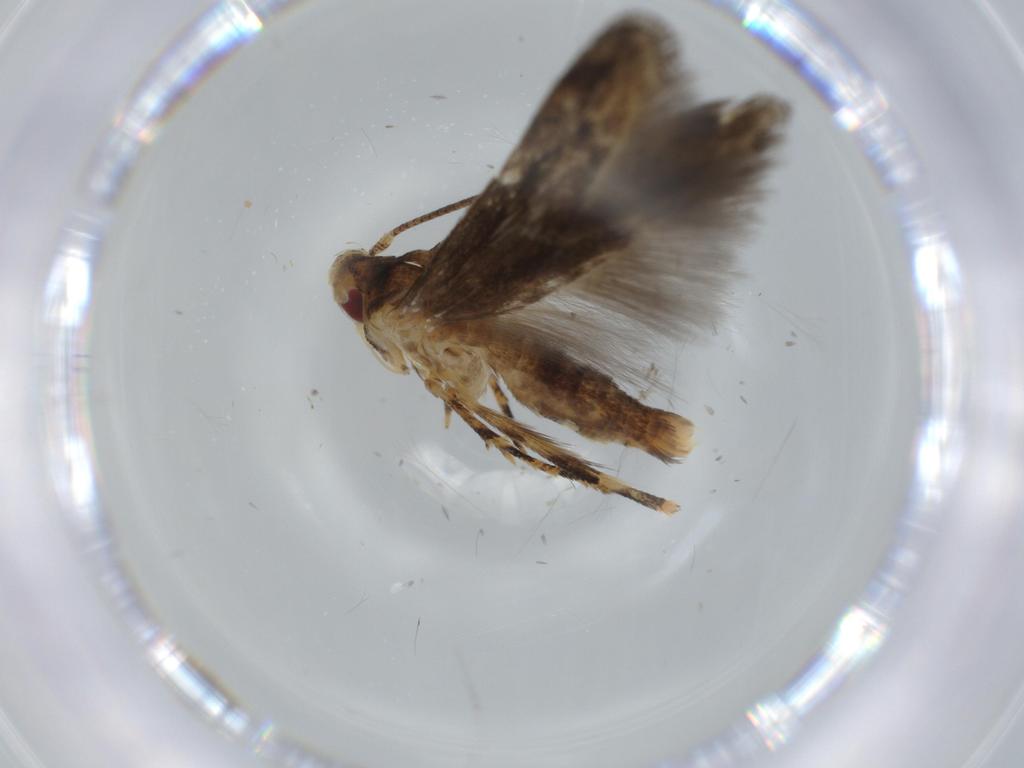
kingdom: Animalia
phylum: Arthropoda
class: Insecta
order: Lepidoptera
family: Tineidae
